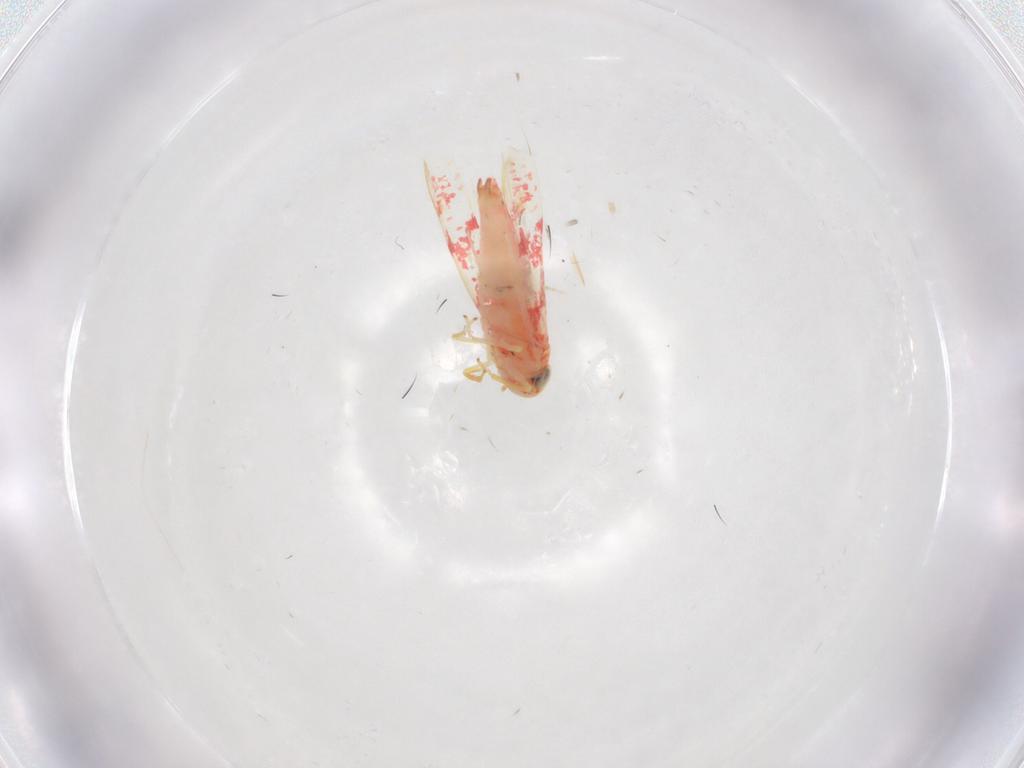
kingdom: Animalia
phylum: Arthropoda
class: Insecta
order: Hemiptera
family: Cicadellidae
